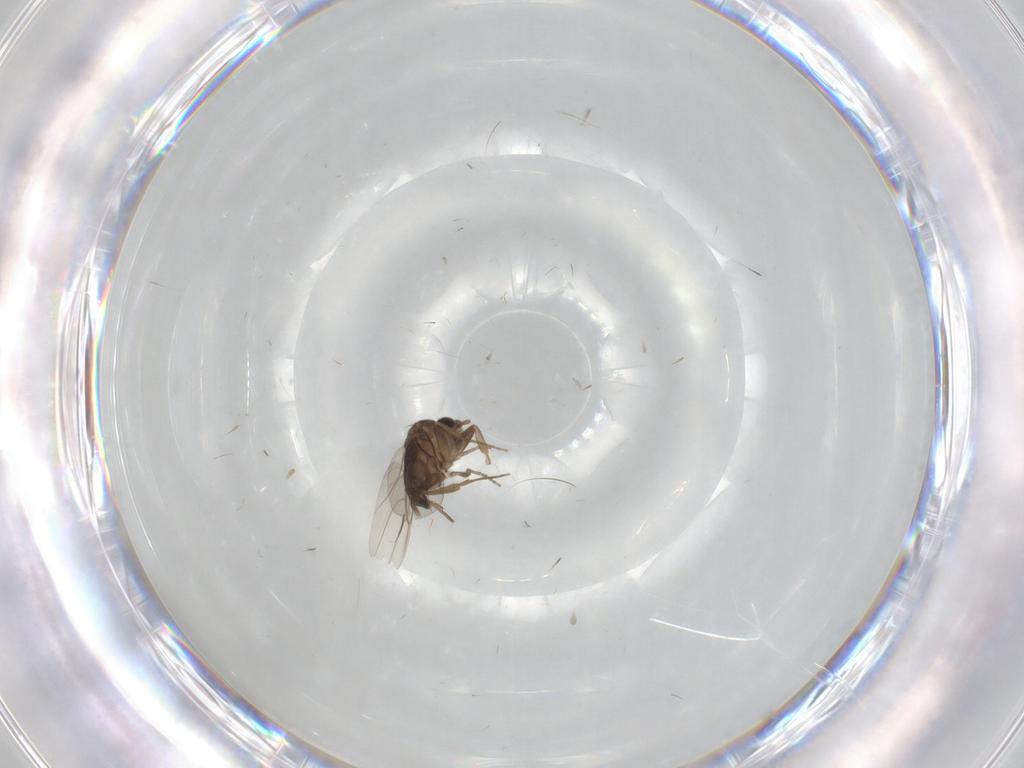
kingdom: Animalia
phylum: Arthropoda
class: Insecta
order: Diptera
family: Phoridae
